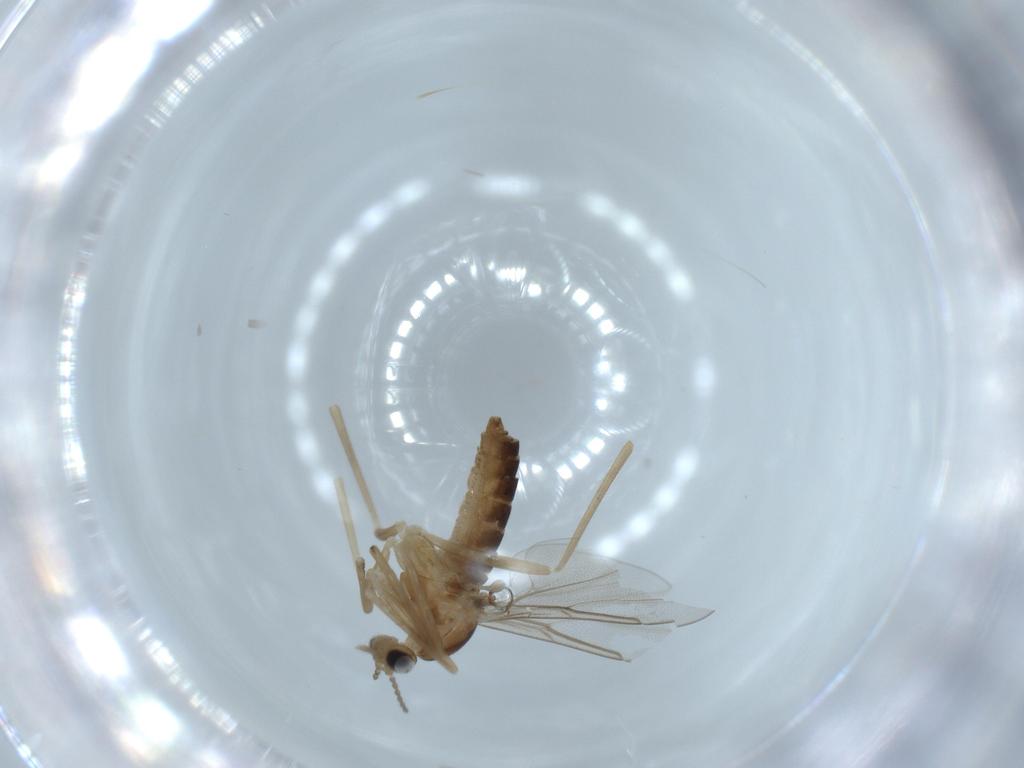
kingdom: Animalia
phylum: Arthropoda
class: Insecta
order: Diptera
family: Cecidomyiidae
